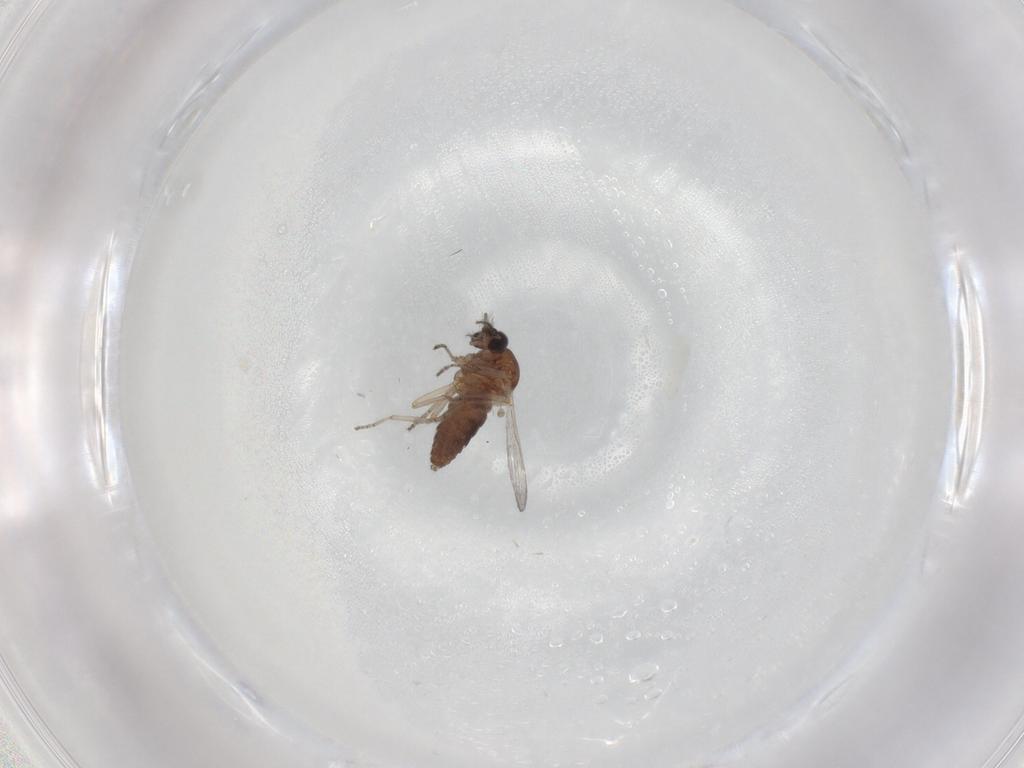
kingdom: Animalia
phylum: Arthropoda
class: Insecta
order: Diptera
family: Ceratopogonidae
